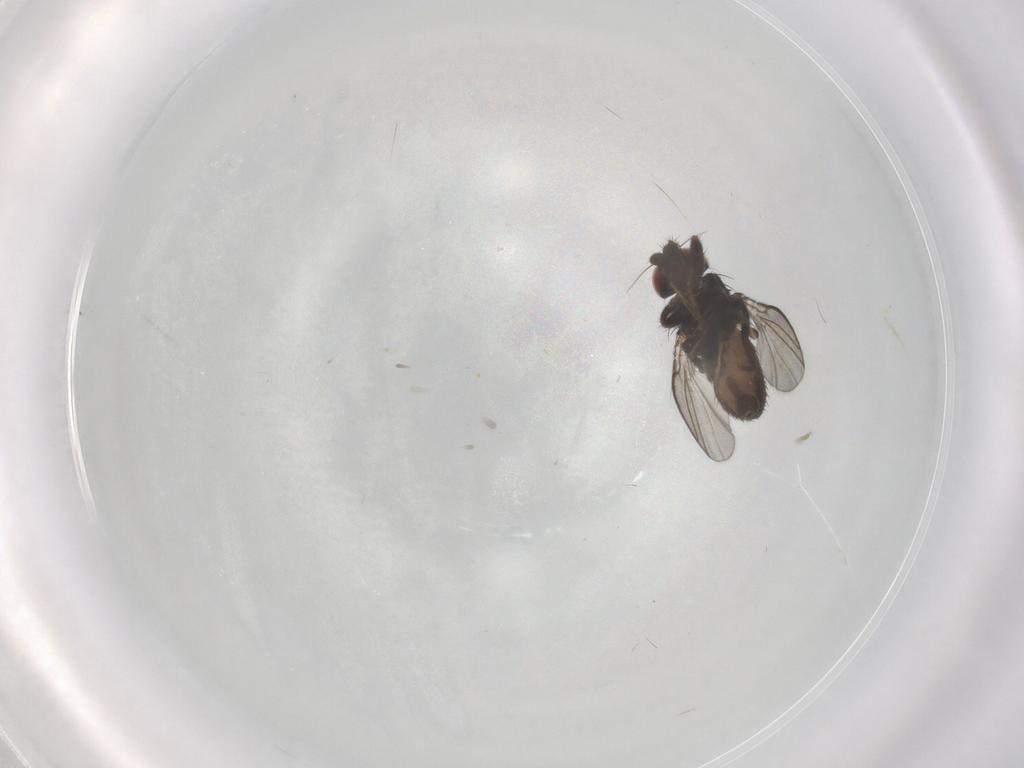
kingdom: Animalia
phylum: Arthropoda
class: Insecta
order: Diptera
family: Milichiidae
